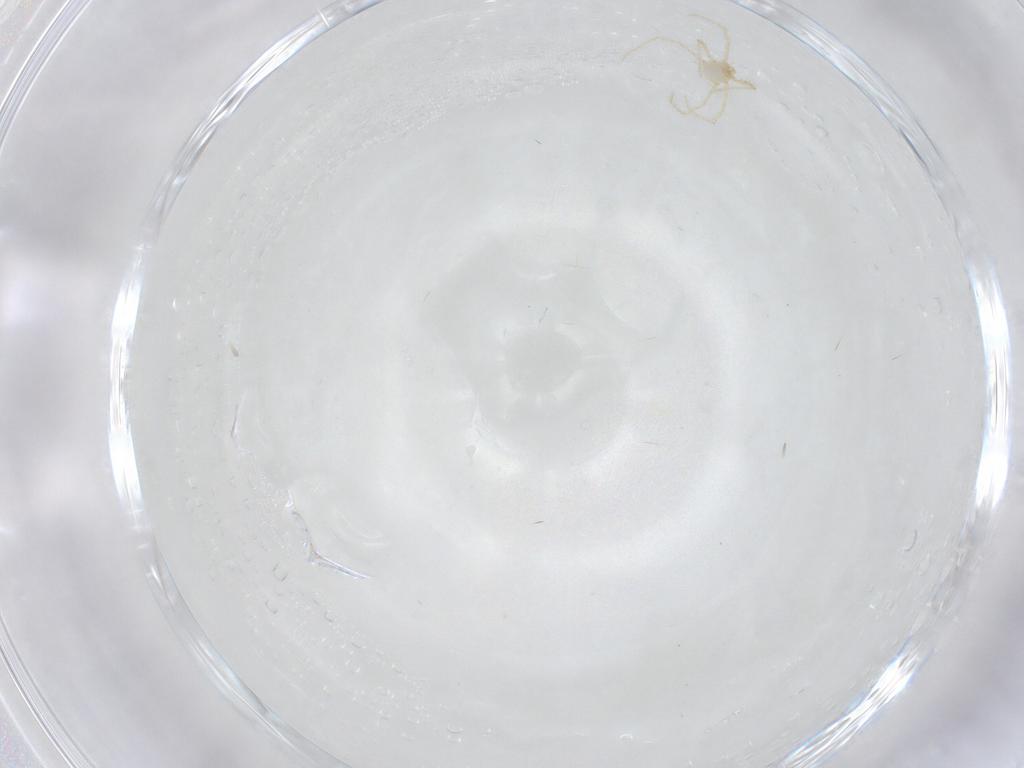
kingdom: Animalia
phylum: Arthropoda
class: Arachnida
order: Trombidiformes
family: Erythraeidae
